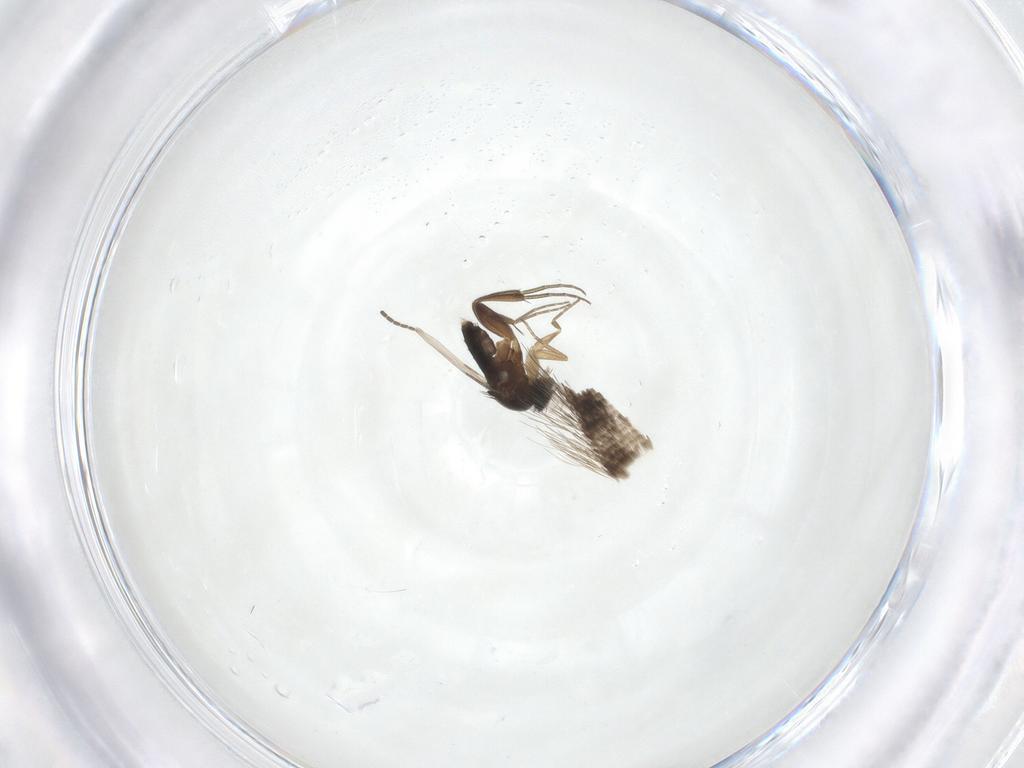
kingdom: Animalia
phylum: Arthropoda
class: Insecta
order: Diptera
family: Phoridae
